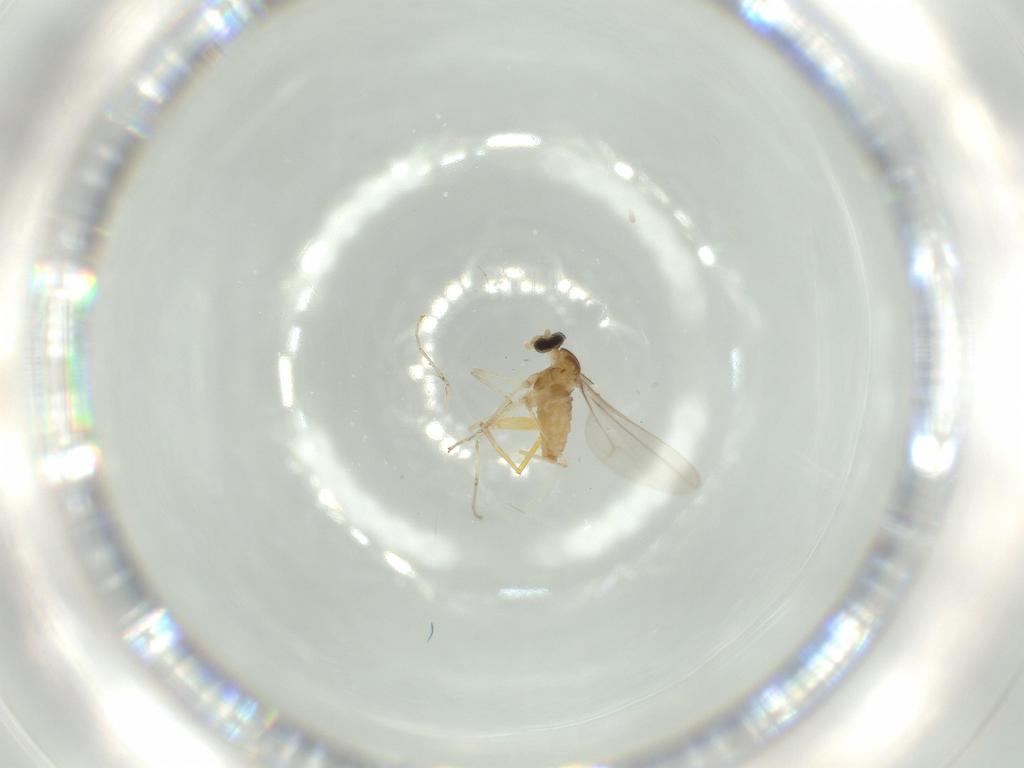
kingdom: Animalia
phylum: Arthropoda
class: Insecta
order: Diptera
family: Cecidomyiidae
